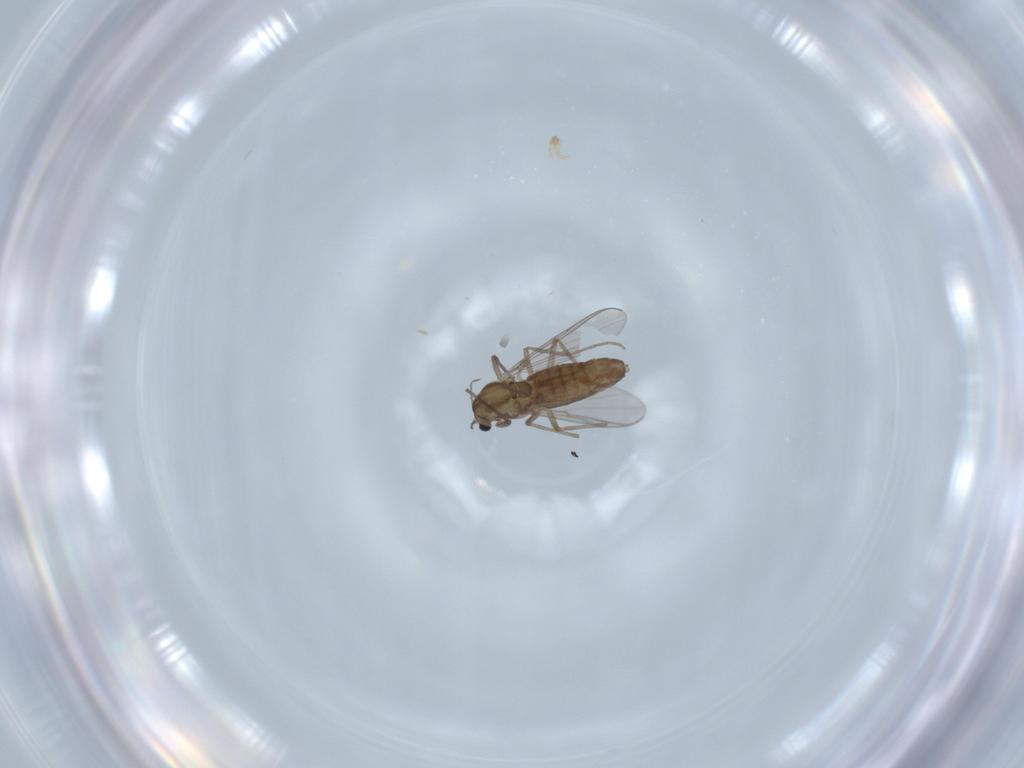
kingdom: Animalia
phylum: Arthropoda
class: Insecta
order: Diptera
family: Chironomidae
